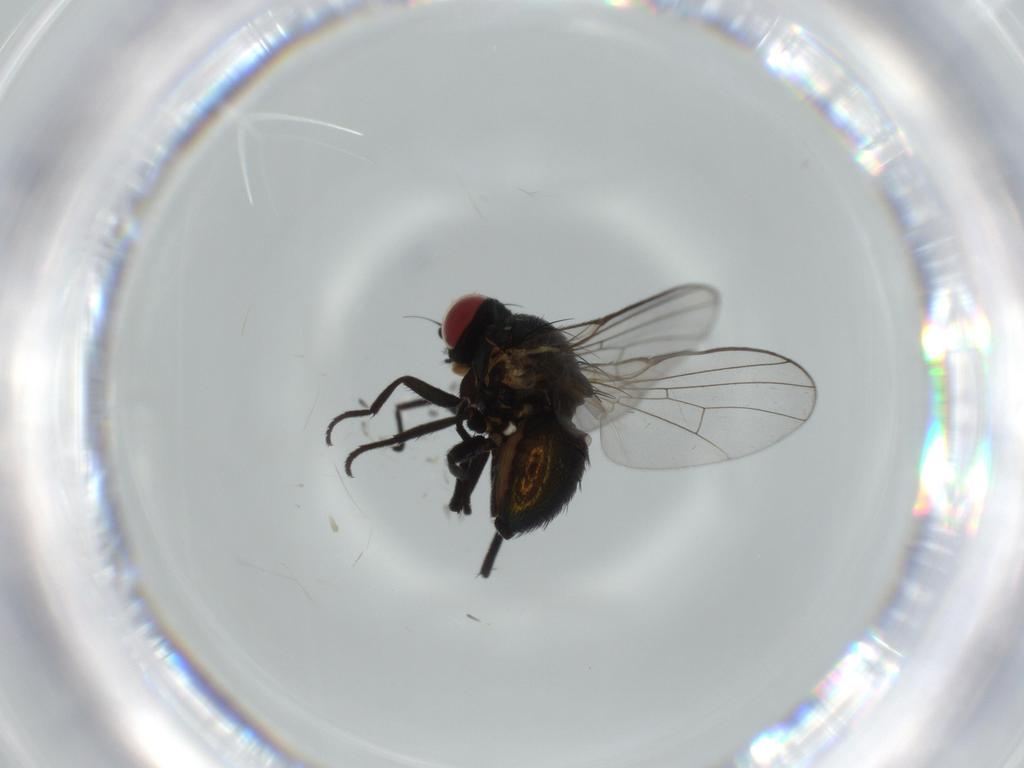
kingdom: Animalia
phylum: Arthropoda
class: Insecta
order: Diptera
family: Agromyzidae
